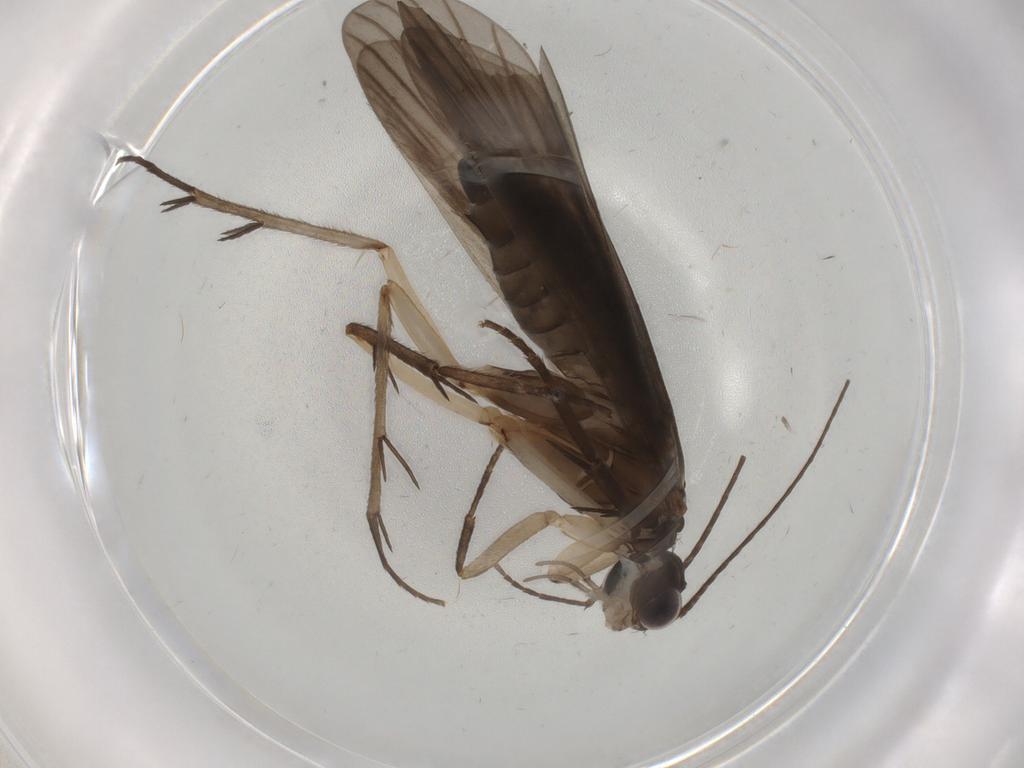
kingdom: Animalia
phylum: Arthropoda
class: Insecta
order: Trichoptera
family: Philopotamidae
